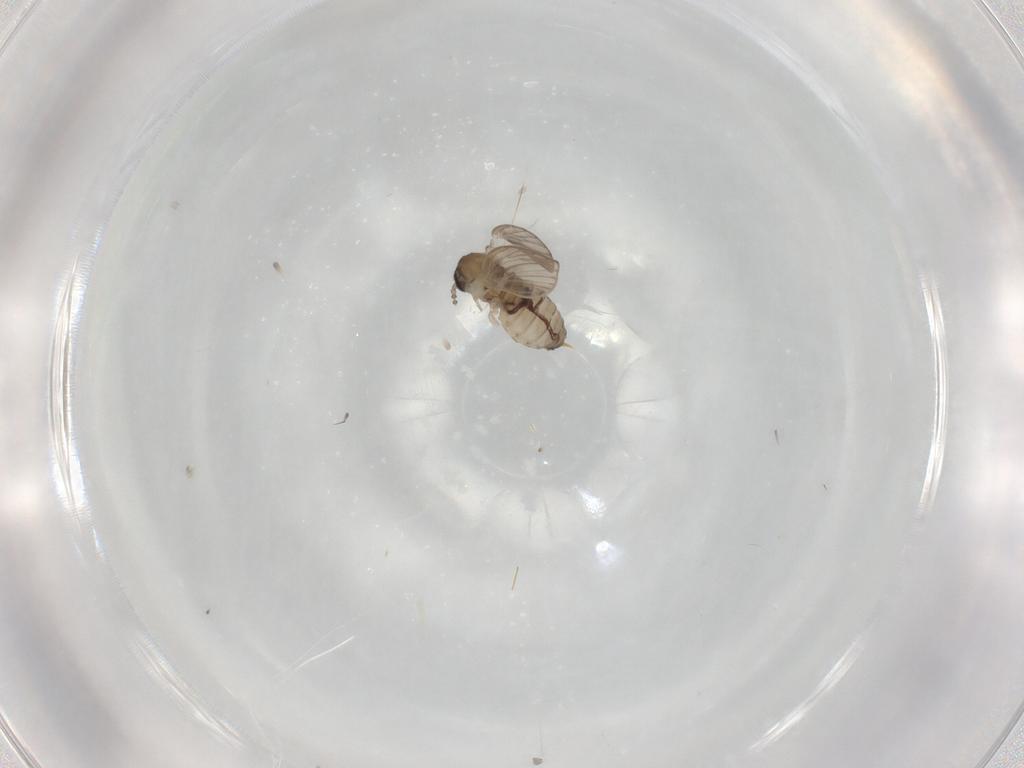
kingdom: Animalia
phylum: Arthropoda
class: Insecta
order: Diptera
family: Psychodidae
